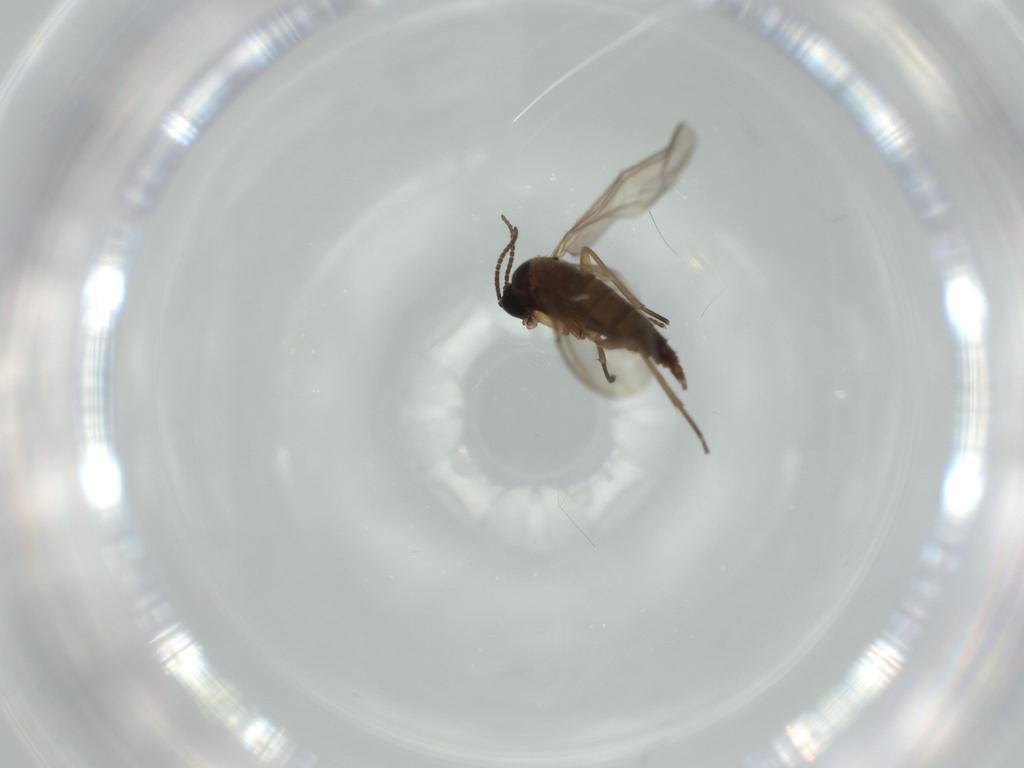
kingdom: Animalia
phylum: Arthropoda
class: Insecta
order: Diptera
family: Syrphidae
